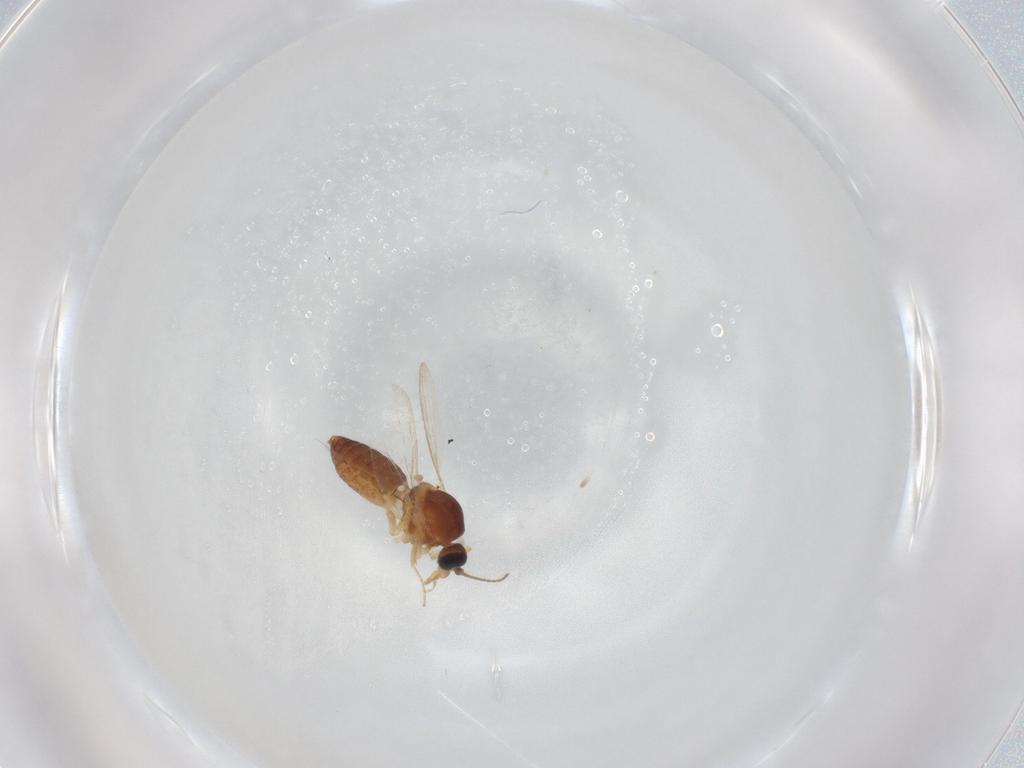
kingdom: Animalia
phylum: Arthropoda
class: Insecta
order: Diptera
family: Ceratopogonidae
